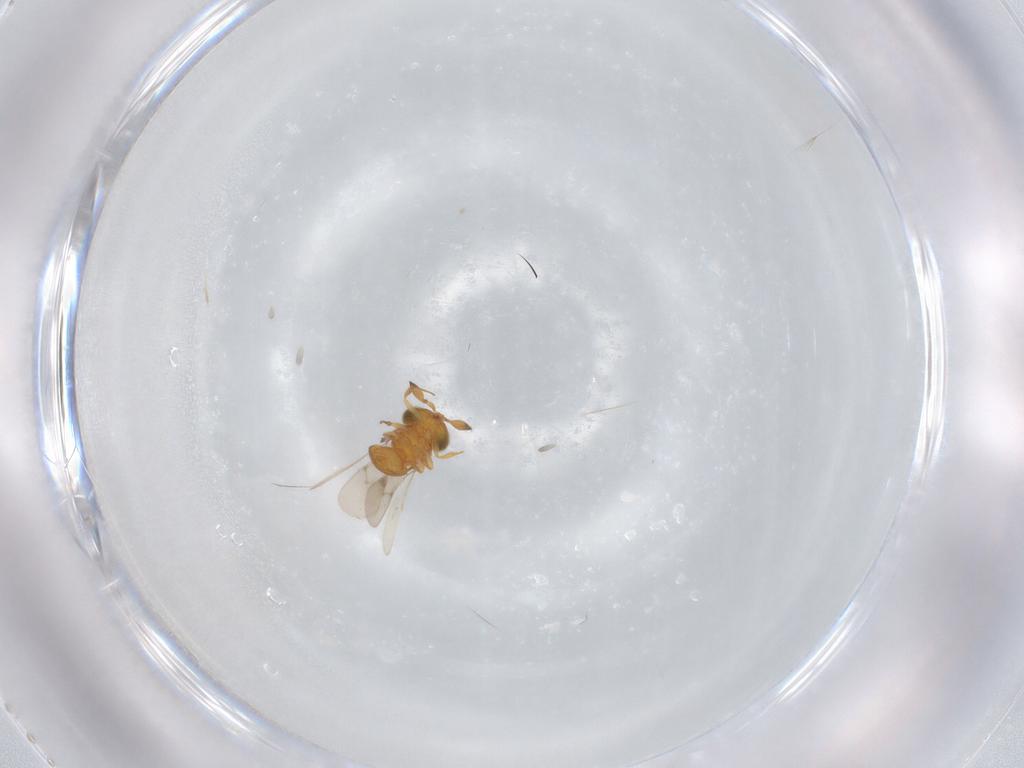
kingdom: Animalia
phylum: Arthropoda
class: Insecta
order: Hymenoptera
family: Scelionidae
